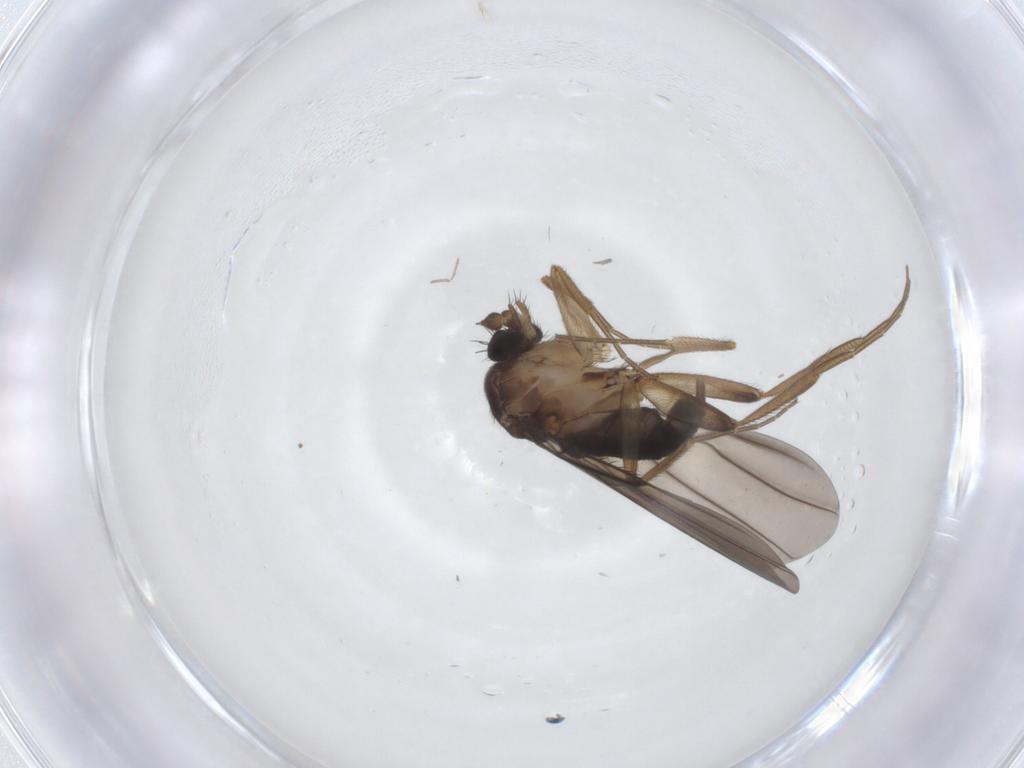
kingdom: Animalia
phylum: Arthropoda
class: Insecta
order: Diptera
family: Phoridae
